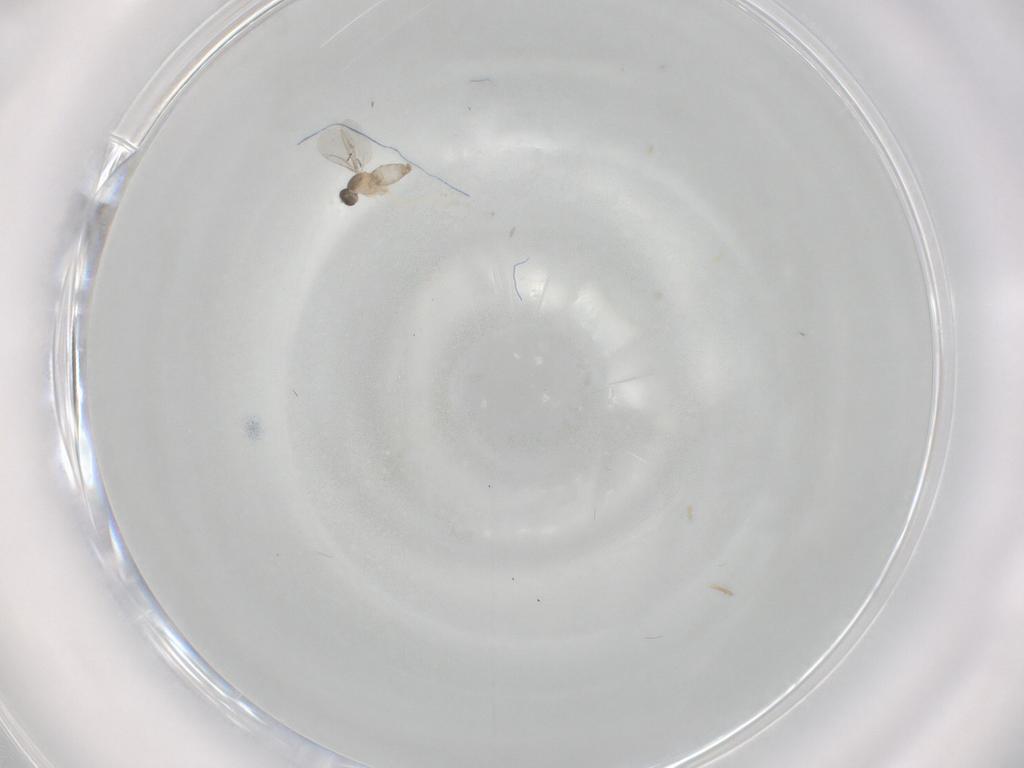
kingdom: Animalia
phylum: Arthropoda
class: Insecta
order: Diptera
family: Cecidomyiidae
